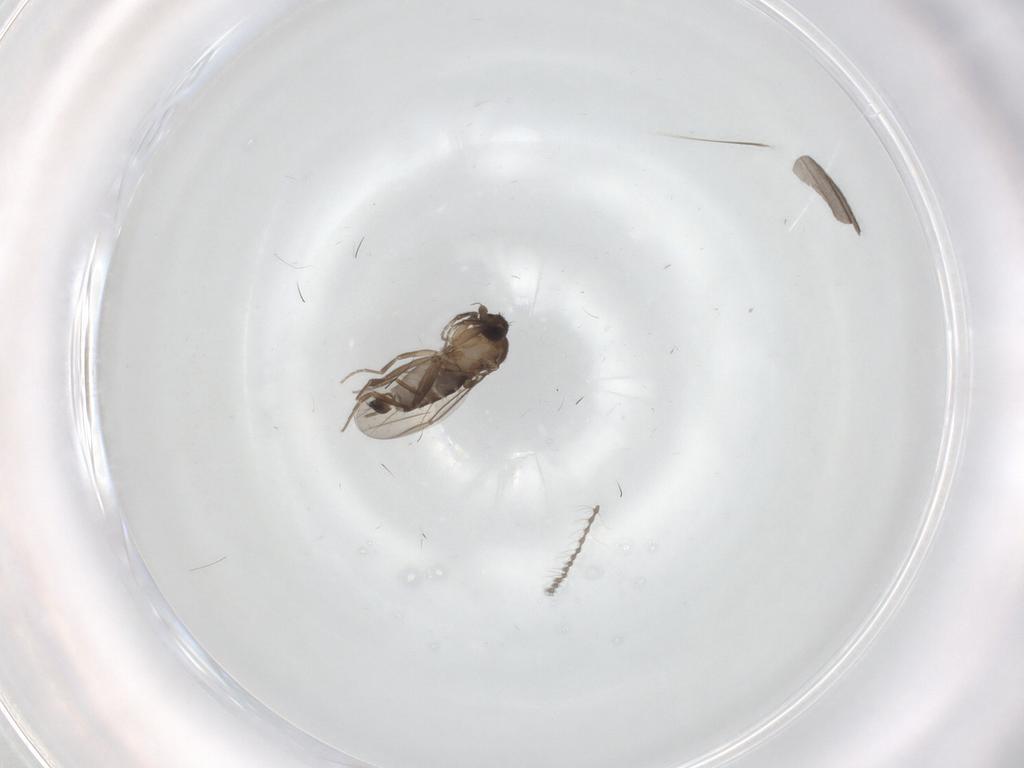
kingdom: Animalia
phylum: Arthropoda
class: Insecta
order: Diptera
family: Phoridae
